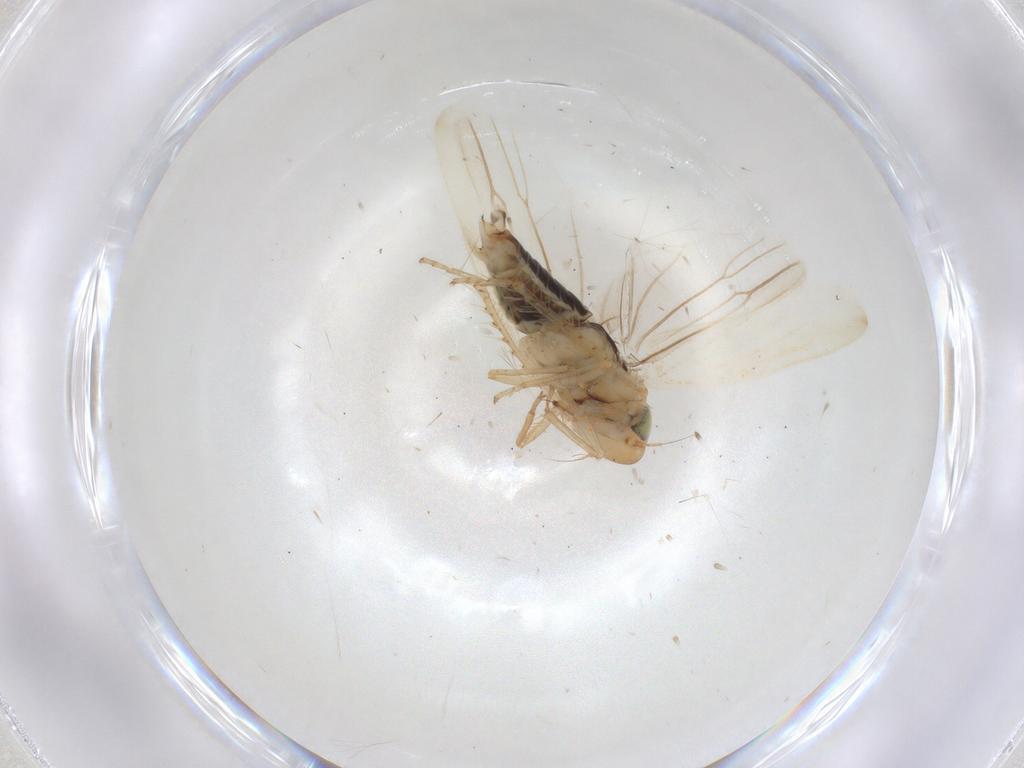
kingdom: Animalia
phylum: Arthropoda
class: Insecta
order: Hemiptera
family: Cicadellidae
